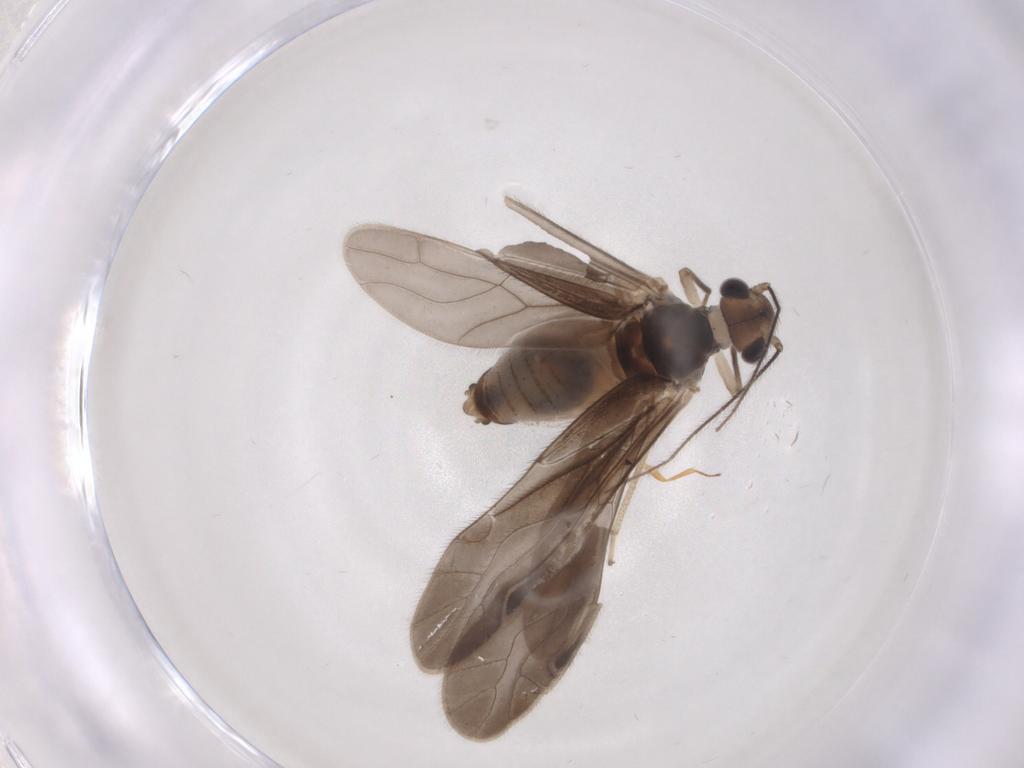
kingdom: Animalia
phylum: Arthropoda
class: Insecta
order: Psocodea
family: Caeciliusidae
